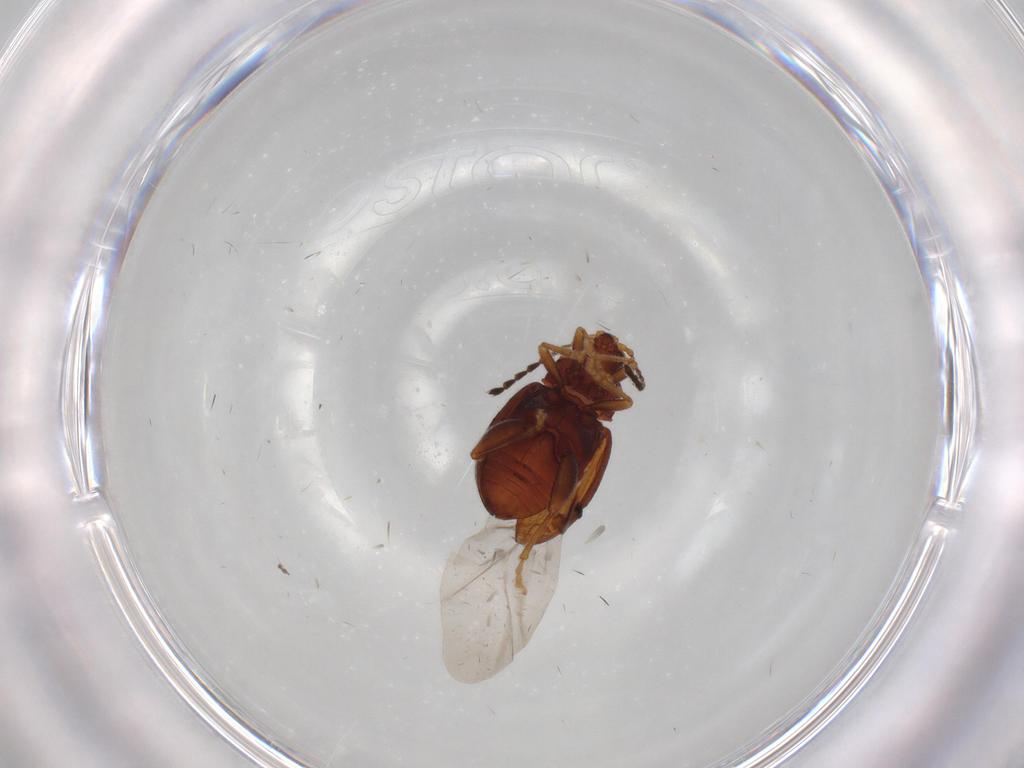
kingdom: Animalia
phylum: Arthropoda
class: Insecta
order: Coleoptera
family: Chrysomelidae
